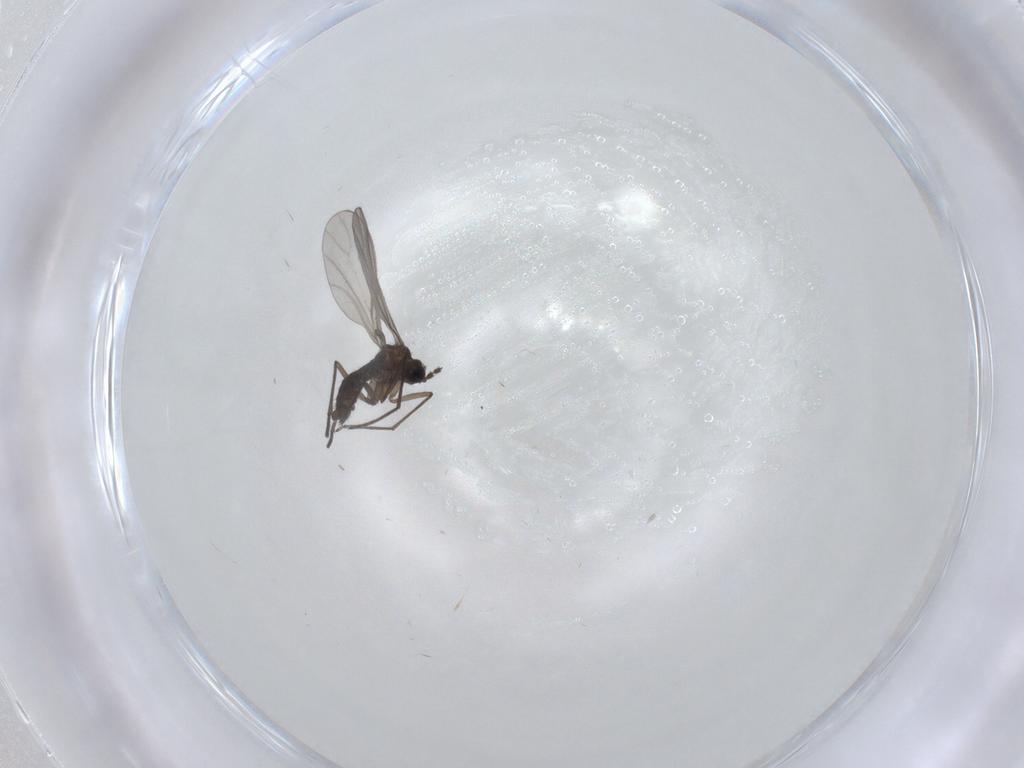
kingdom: Animalia
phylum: Arthropoda
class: Insecta
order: Diptera
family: Sciaridae
